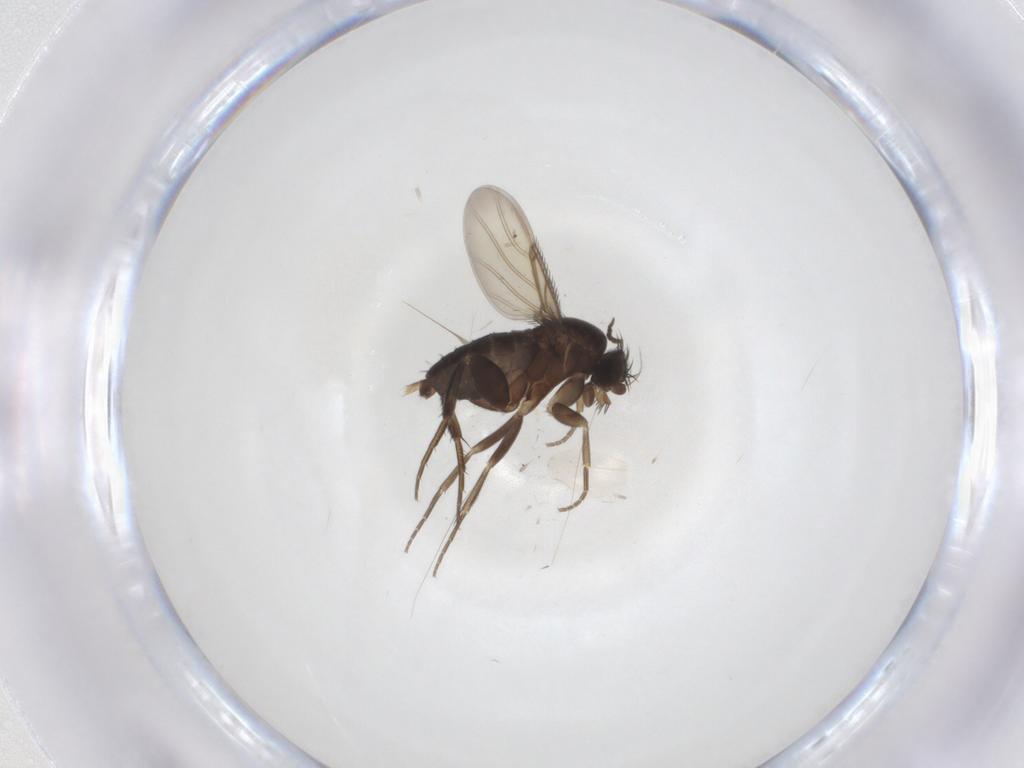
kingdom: Animalia
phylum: Arthropoda
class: Insecta
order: Diptera
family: Phoridae
